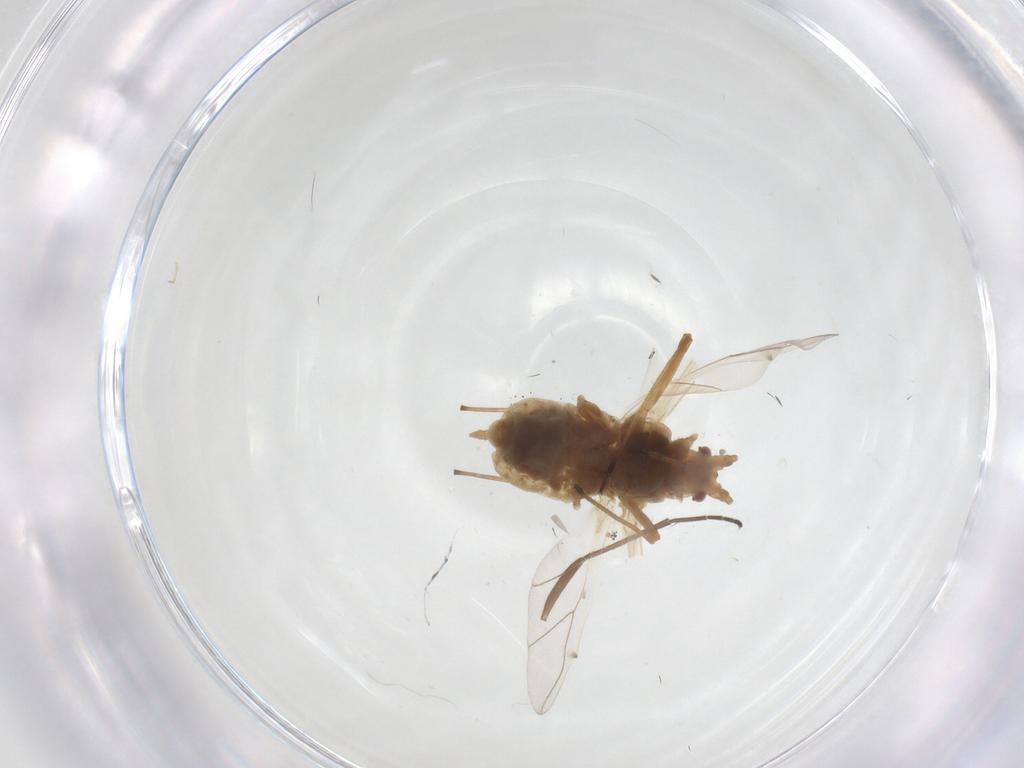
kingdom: Animalia
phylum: Arthropoda
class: Insecta
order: Hemiptera
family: Aphididae
